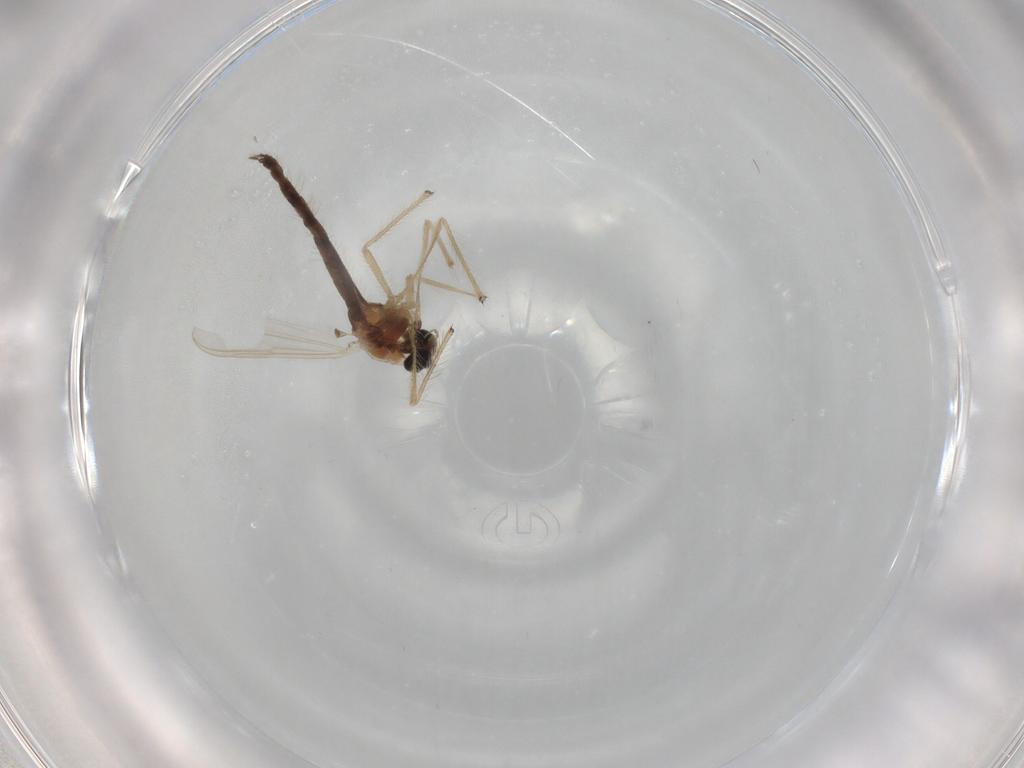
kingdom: Animalia
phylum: Arthropoda
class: Insecta
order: Diptera
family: Chironomidae
